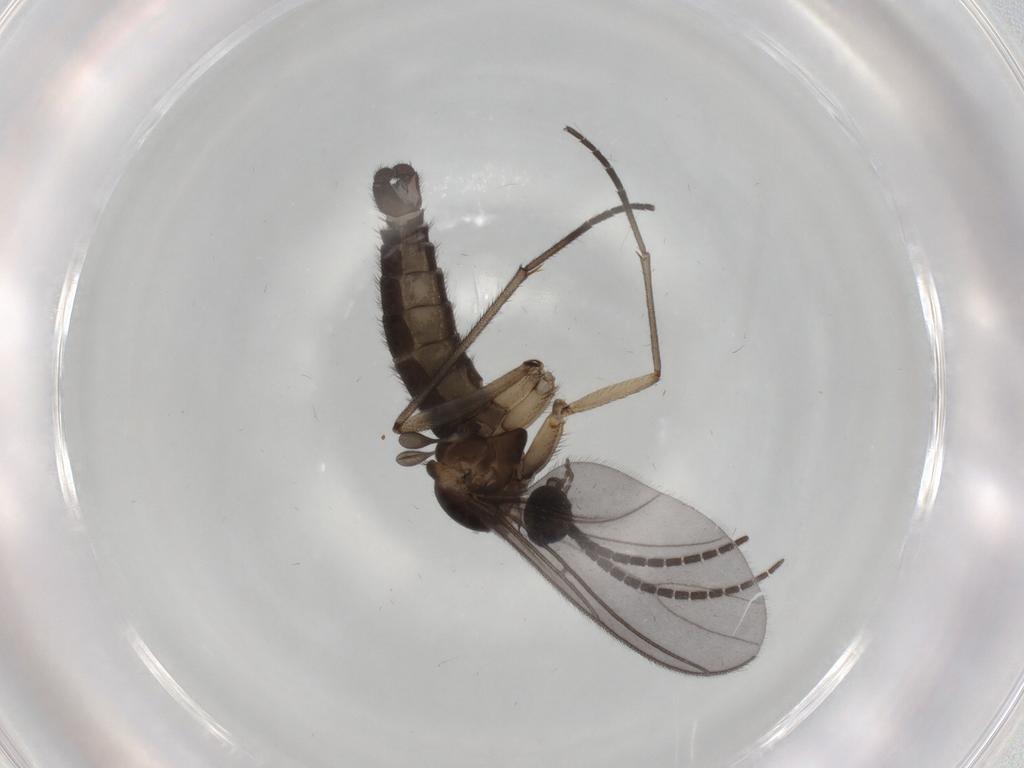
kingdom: Animalia
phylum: Arthropoda
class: Insecta
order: Diptera
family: Sciaridae
